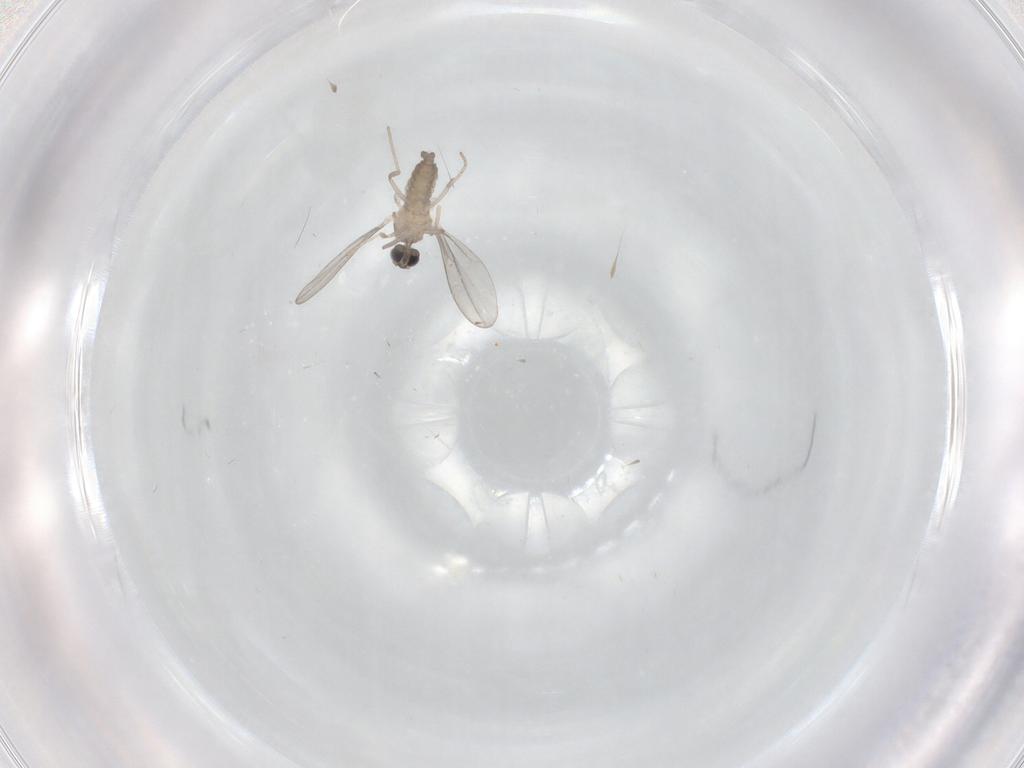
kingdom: Animalia
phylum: Arthropoda
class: Insecta
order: Diptera
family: Cecidomyiidae
